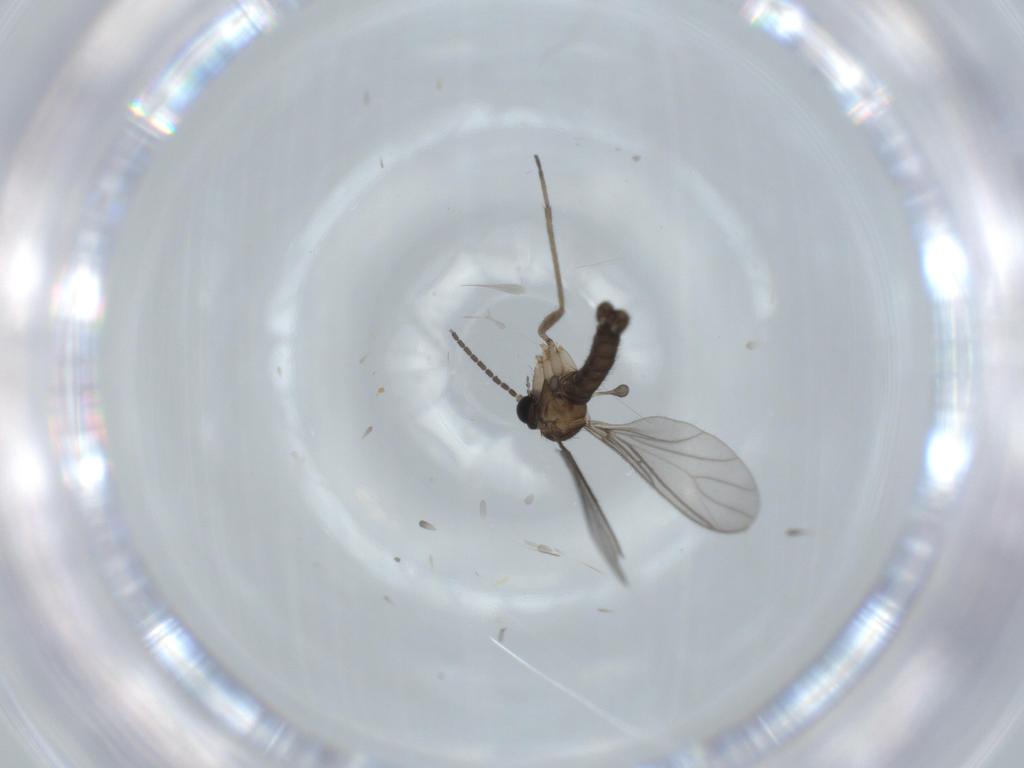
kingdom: Animalia
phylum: Arthropoda
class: Insecta
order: Diptera
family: Sciaridae
